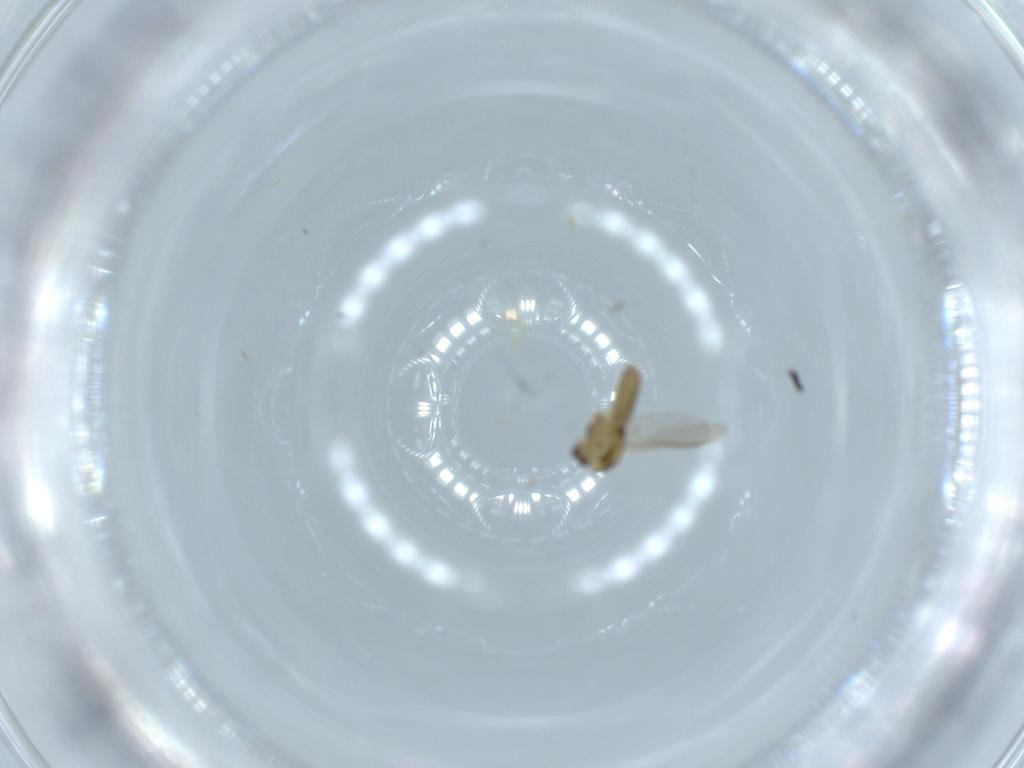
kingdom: Animalia
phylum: Arthropoda
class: Insecta
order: Diptera
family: Chironomidae
